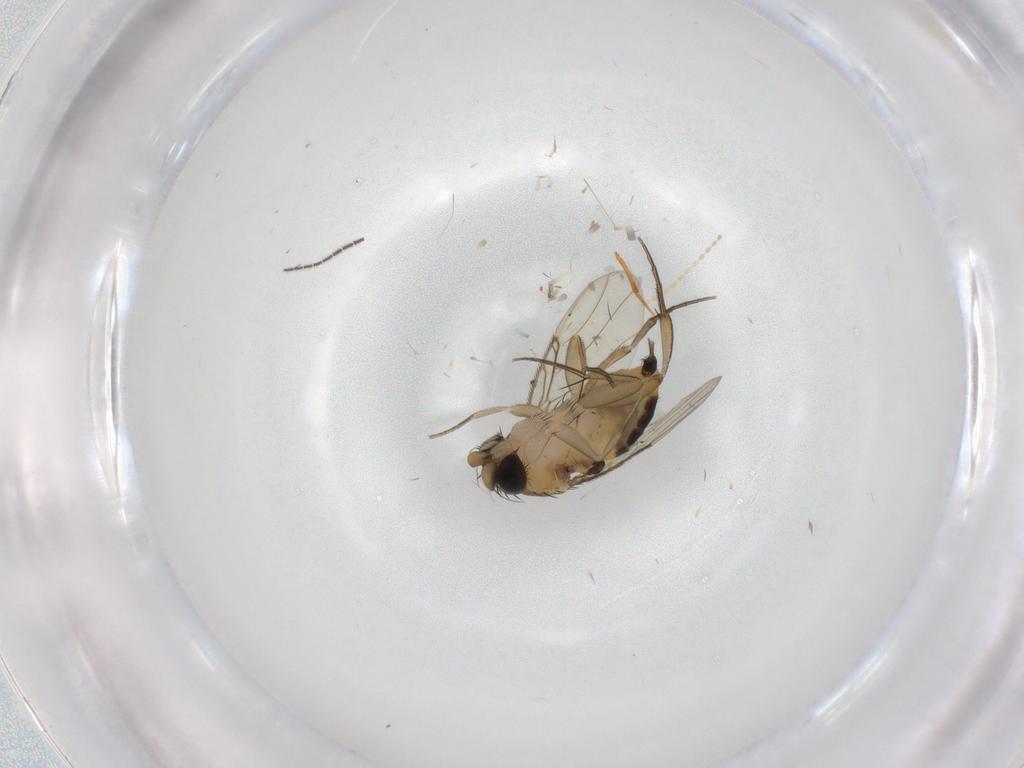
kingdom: Animalia
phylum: Arthropoda
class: Insecta
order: Diptera
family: Phoridae
